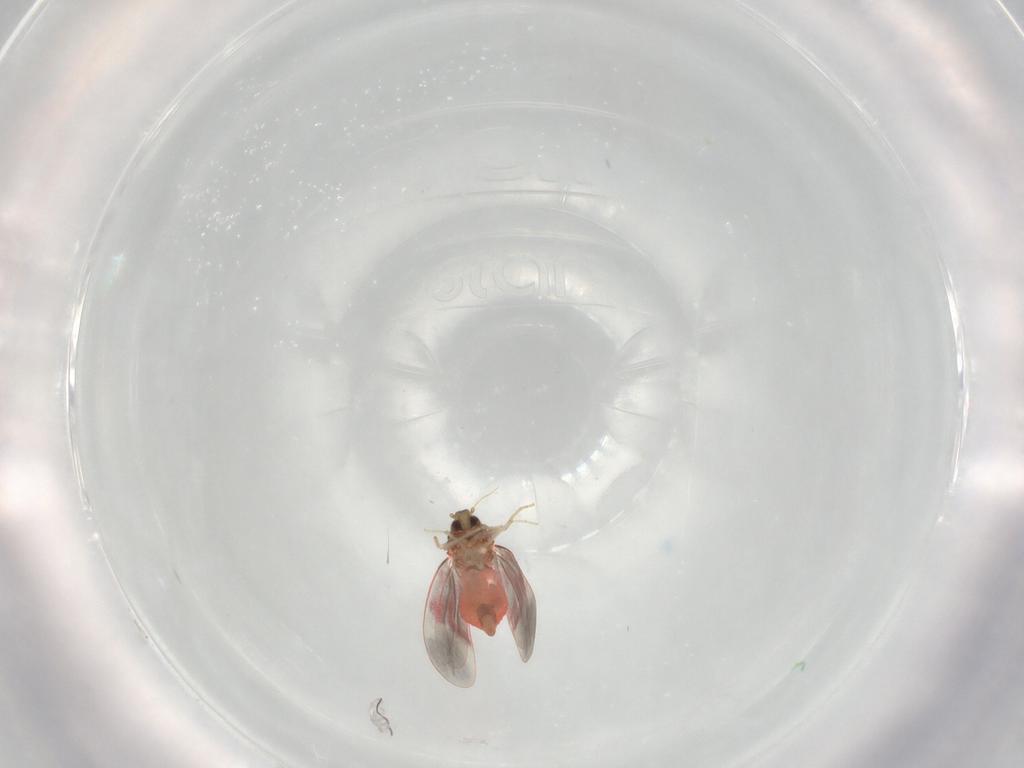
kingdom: Animalia
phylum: Arthropoda
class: Insecta
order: Hemiptera
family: Aleyrodidae
